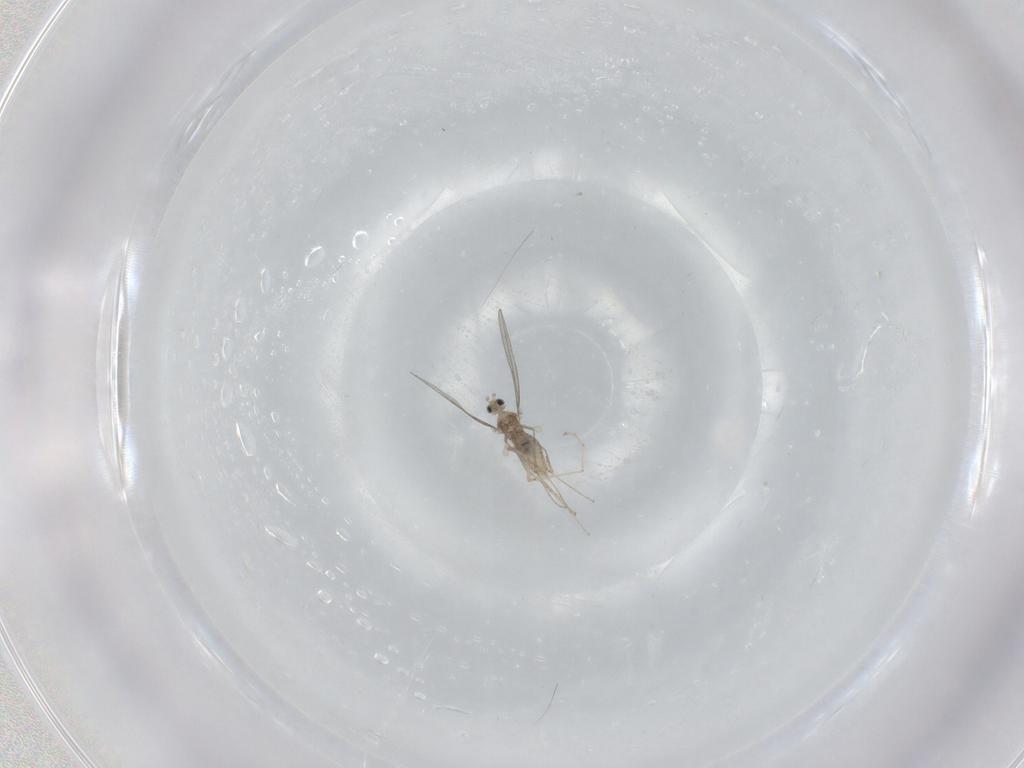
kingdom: Animalia
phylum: Arthropoda
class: Insecta
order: Diptera
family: Cecidomyiidae
